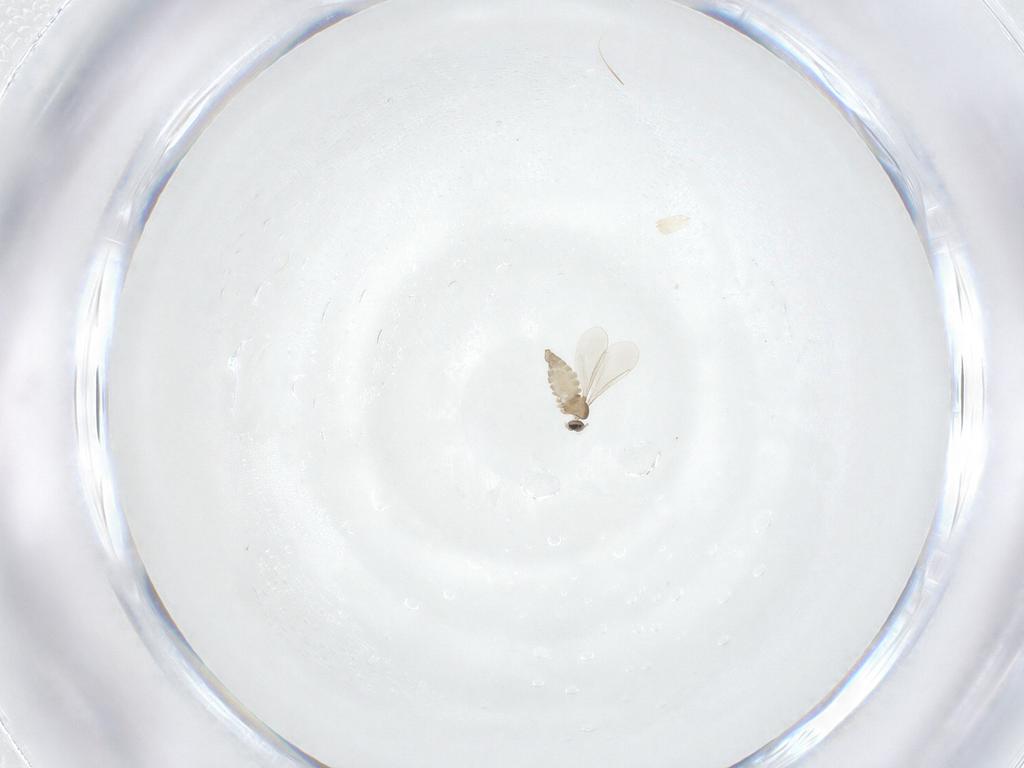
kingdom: Animalia
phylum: Arthropoda
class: Insecta
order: Diptera
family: Cecidomyiidae
